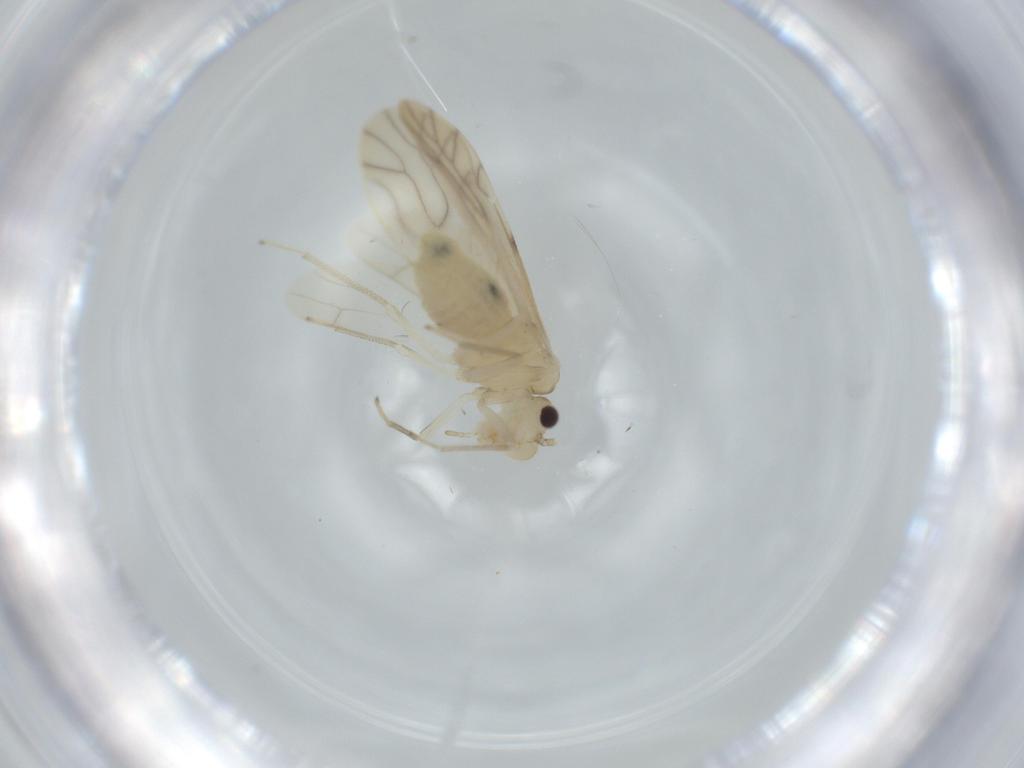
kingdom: Animalia
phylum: Arthropoda
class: Insecta
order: Psocodea
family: Caeciliusidae
